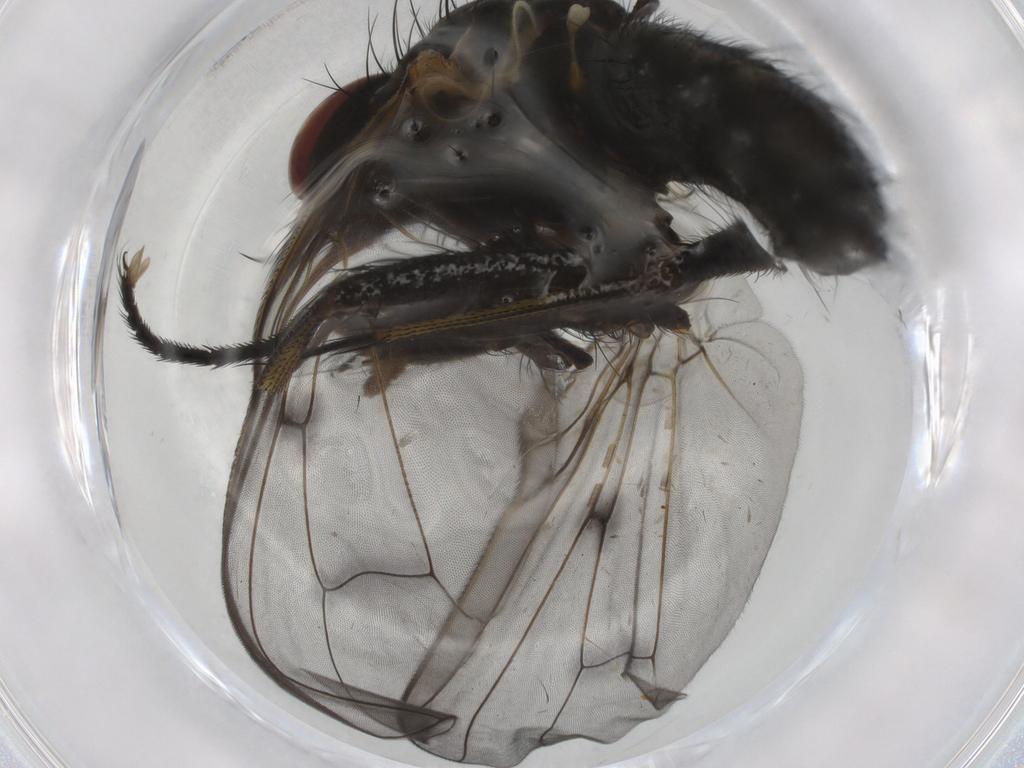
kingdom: Animalia
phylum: Arthropoda
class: Insecta
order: Diptera
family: Muscidae
